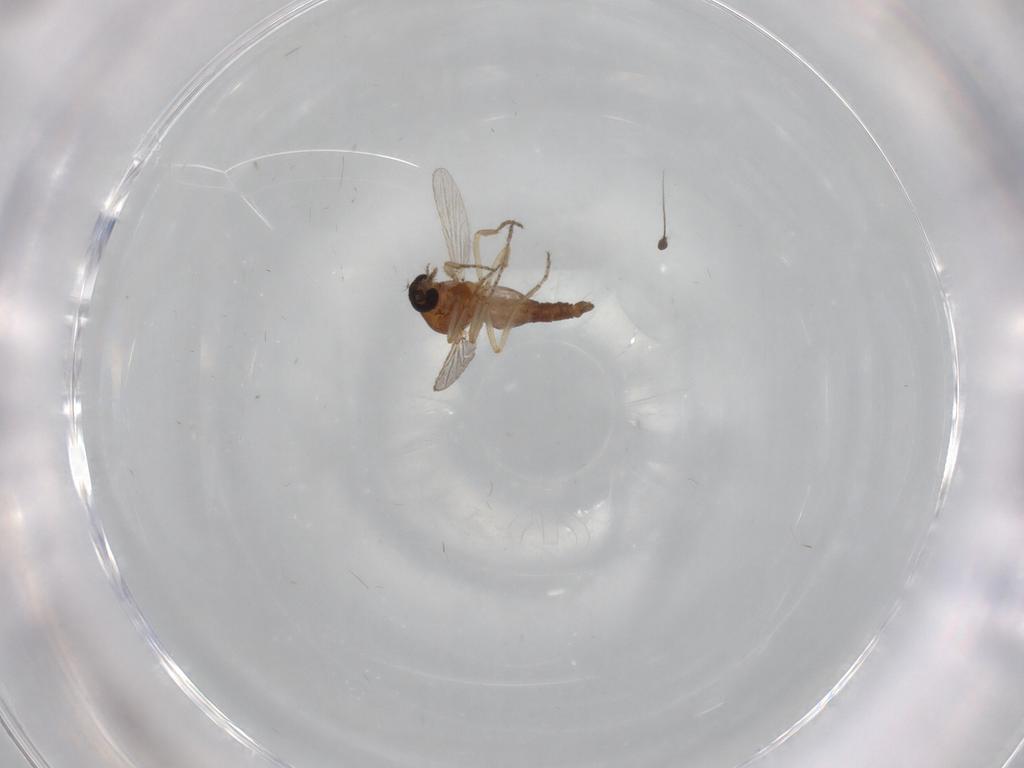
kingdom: Animalia
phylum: Arthropoda
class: Insecta
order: Diptera
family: Ceratopogonidae
